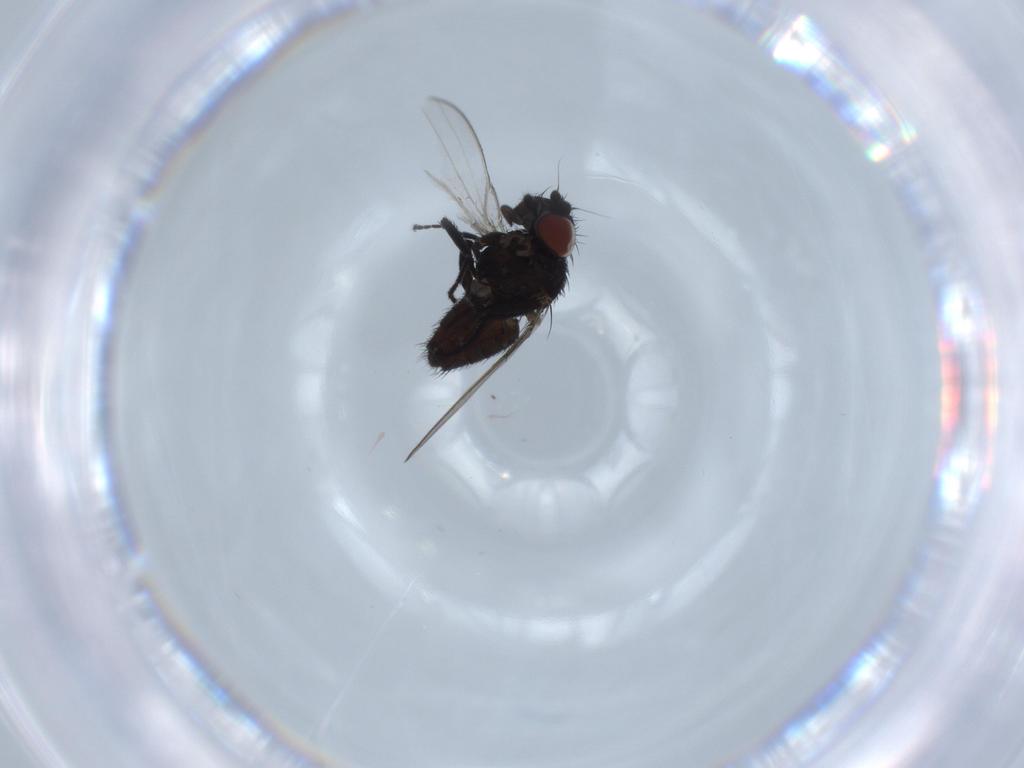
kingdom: Animalia
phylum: Arthropoda
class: Insecta
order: Diptera
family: Milichiidae
